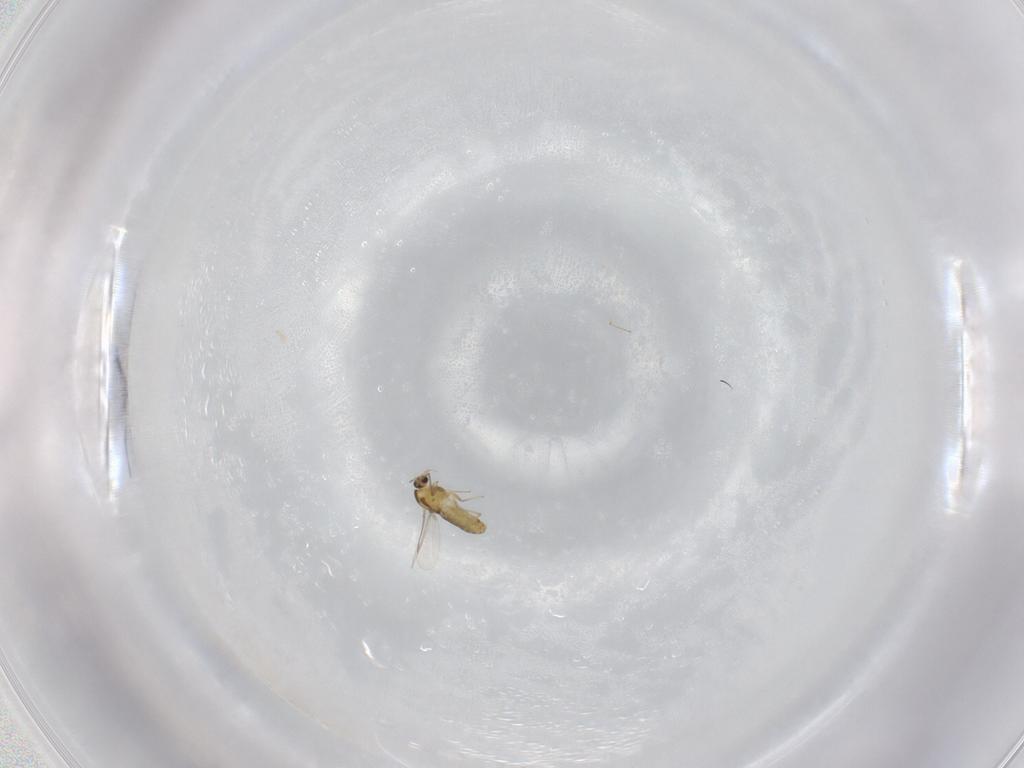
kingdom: Animalia
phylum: Arthropoda
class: Insecta
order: Diptera
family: Chironomidae
